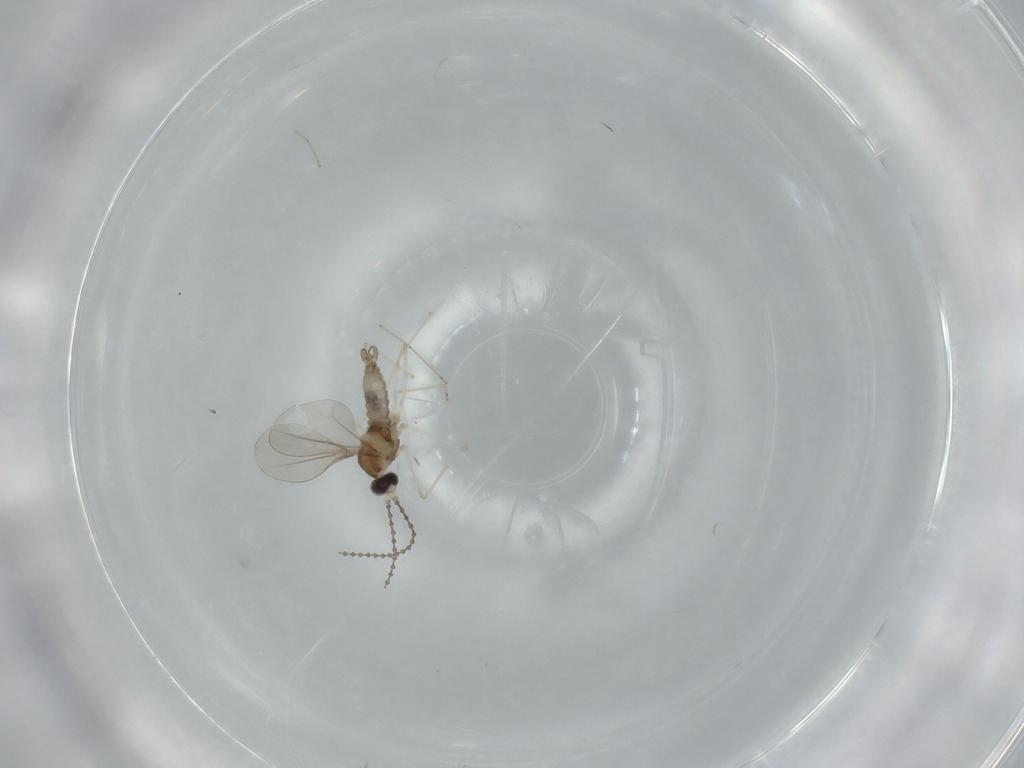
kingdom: Animalia
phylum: Arthropoda
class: Insecta
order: Diptera
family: Cecidomyiidae
